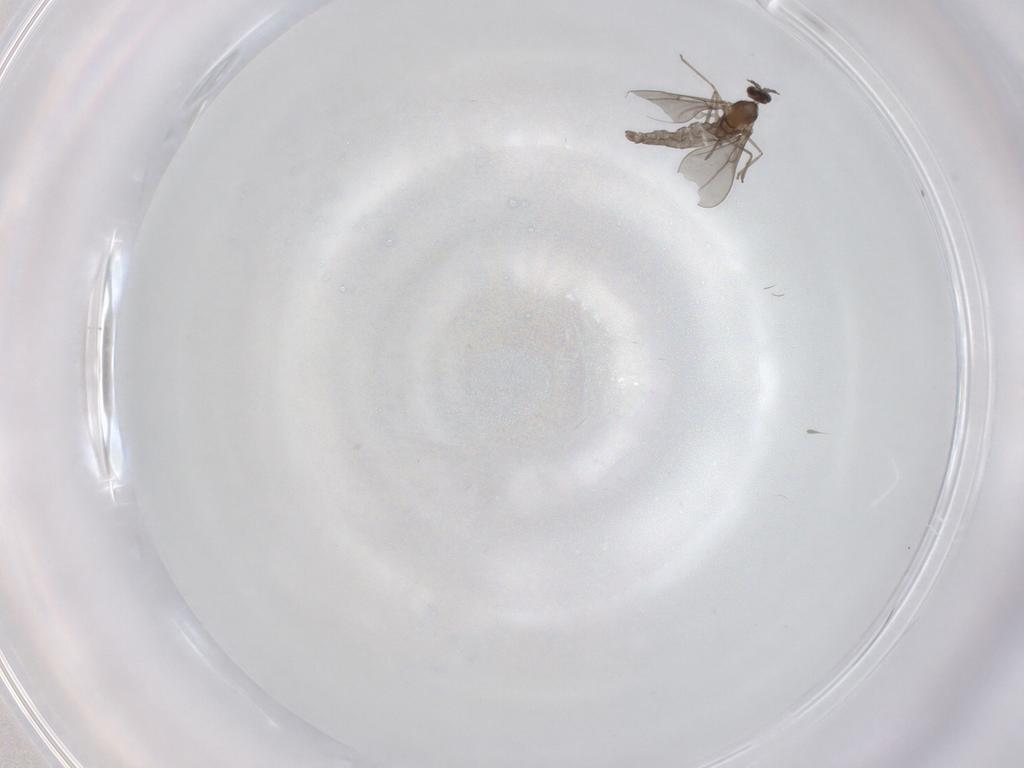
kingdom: Animalia
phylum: Arthropoda
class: Insecta
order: Diptera
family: Cecidomyiidae
